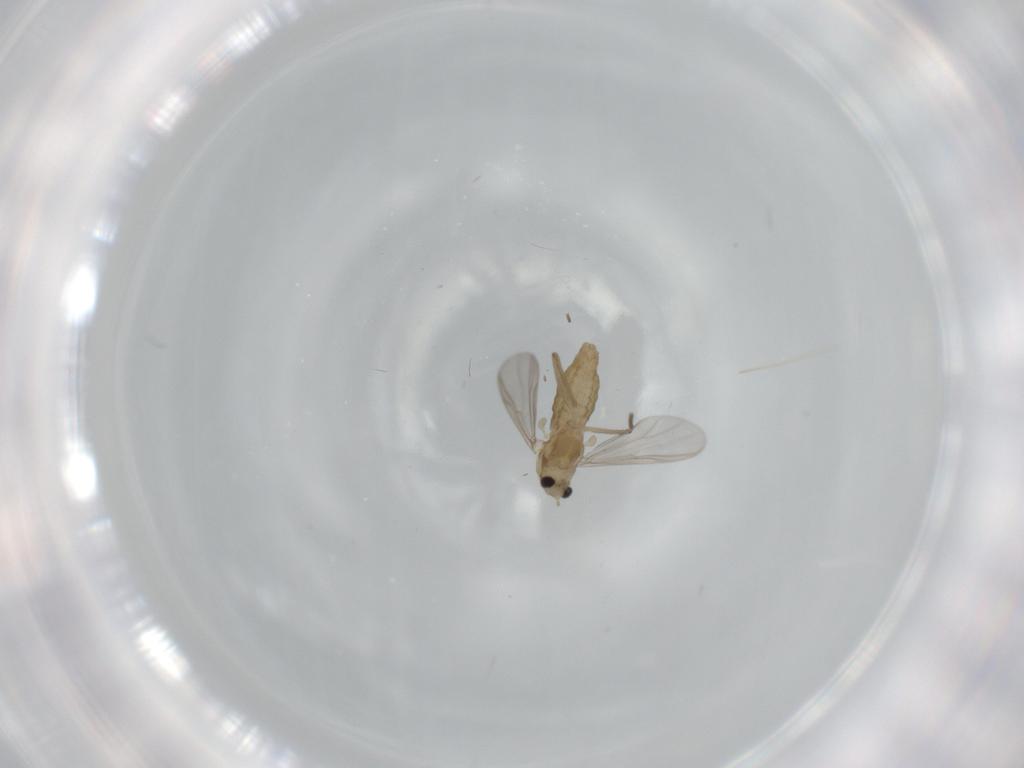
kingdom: Animalia
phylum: Arthropoda
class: Insecta
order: Diptera
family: Chironomidae
